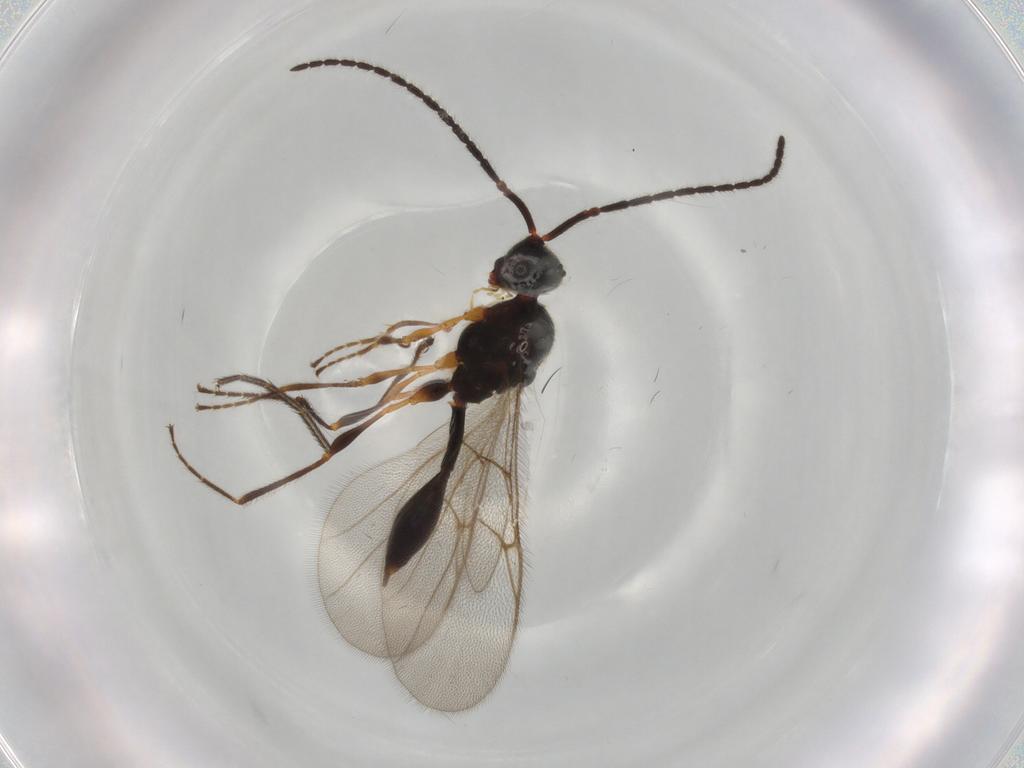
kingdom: Animalia
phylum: Arthropoda
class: Insecta
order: Hymenoptera
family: Diapriidae
